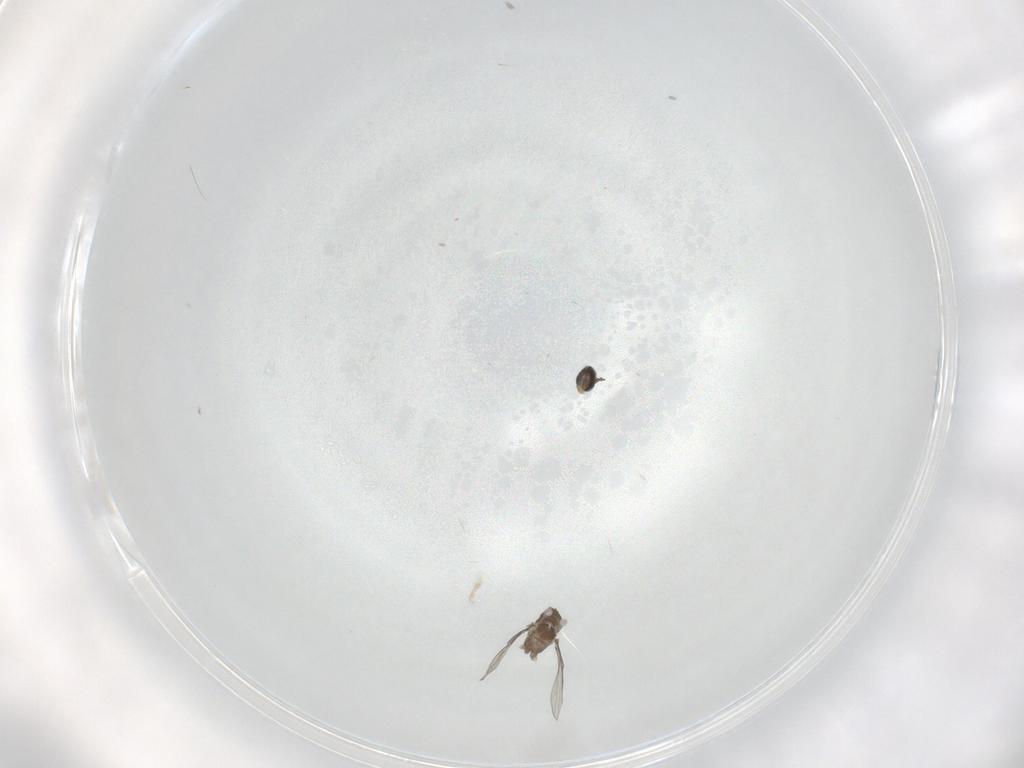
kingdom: Animalia
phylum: Arthropoda
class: Insecta
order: Diptera
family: Cecidomyiidae
